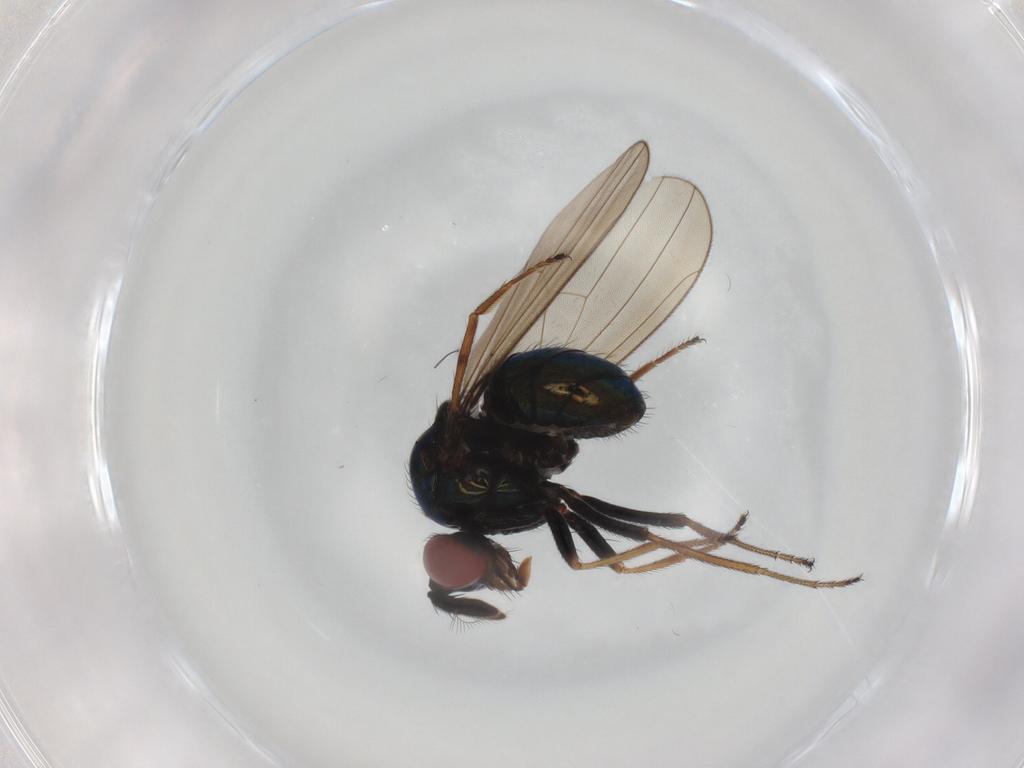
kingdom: Animalia
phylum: Arthropoda
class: Insecta
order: Diptera
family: Ephydridae
